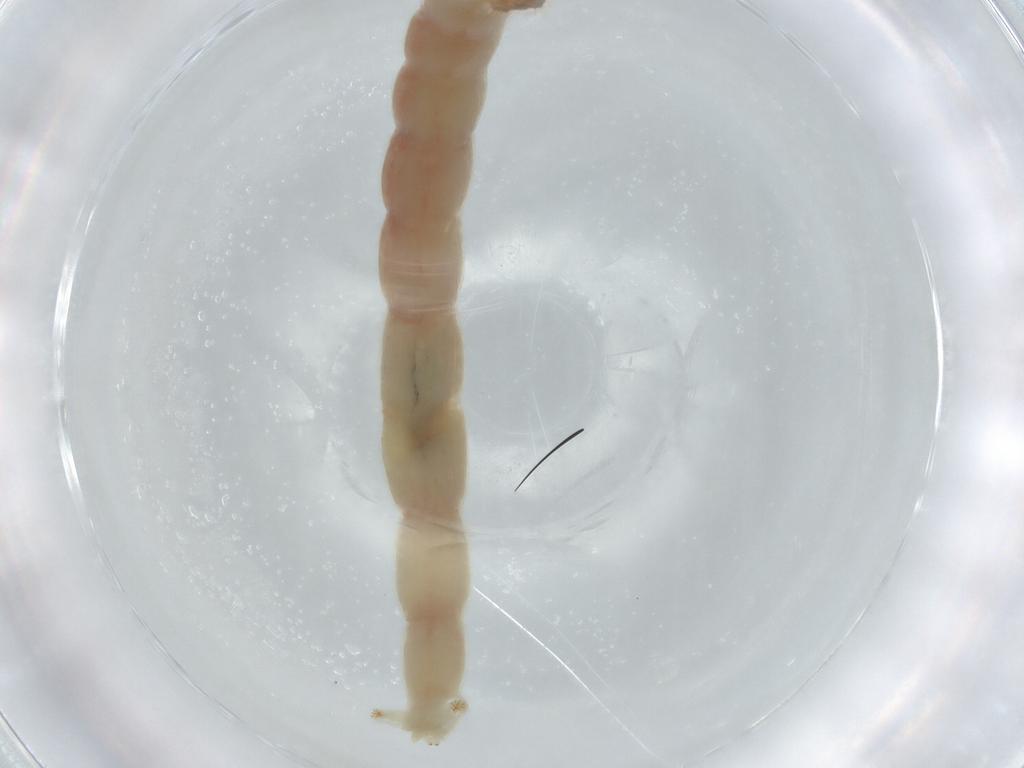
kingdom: Animalia
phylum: Arthropoda
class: Insecta
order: Diptera
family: Chironomidae
